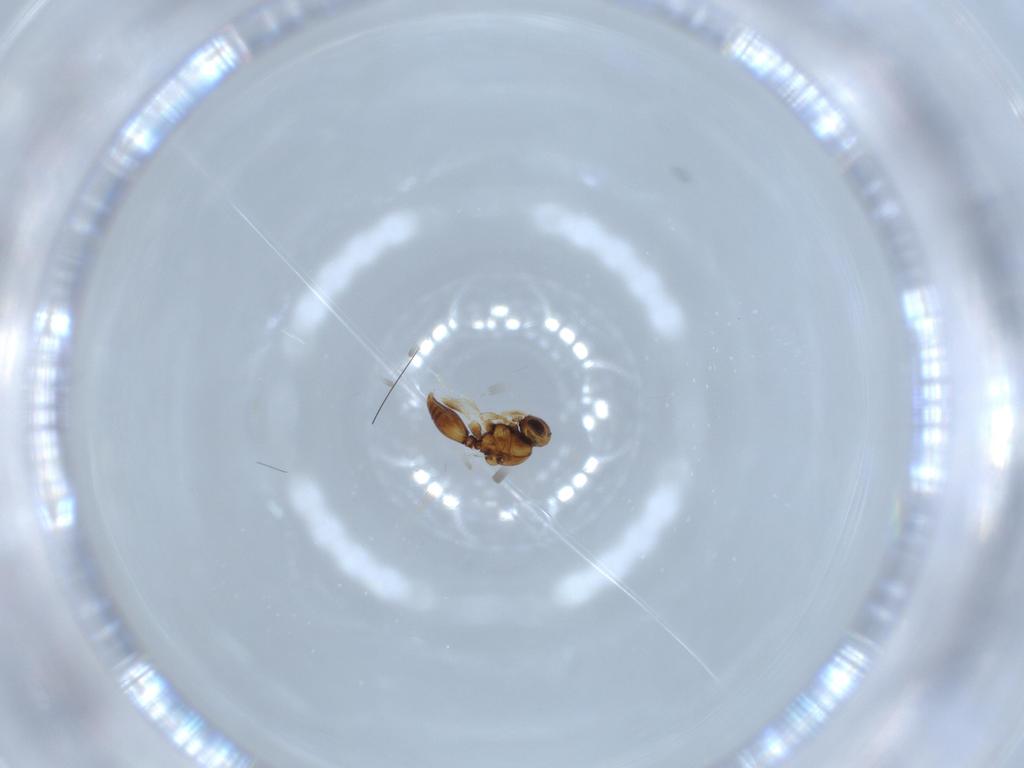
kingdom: Animalia
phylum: Arthropoda
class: Insecta
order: Hymenoptera
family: Platygastridae
